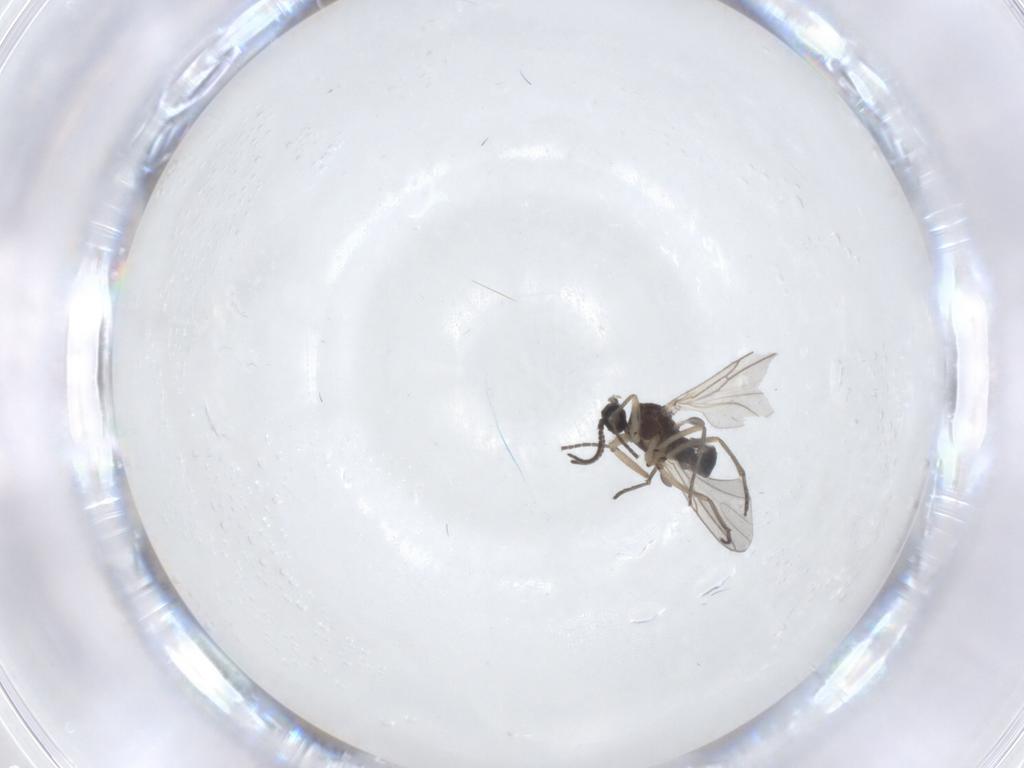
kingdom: Animalia
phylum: Arthropoda
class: Insecta
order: Diptera
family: Sciaridae
